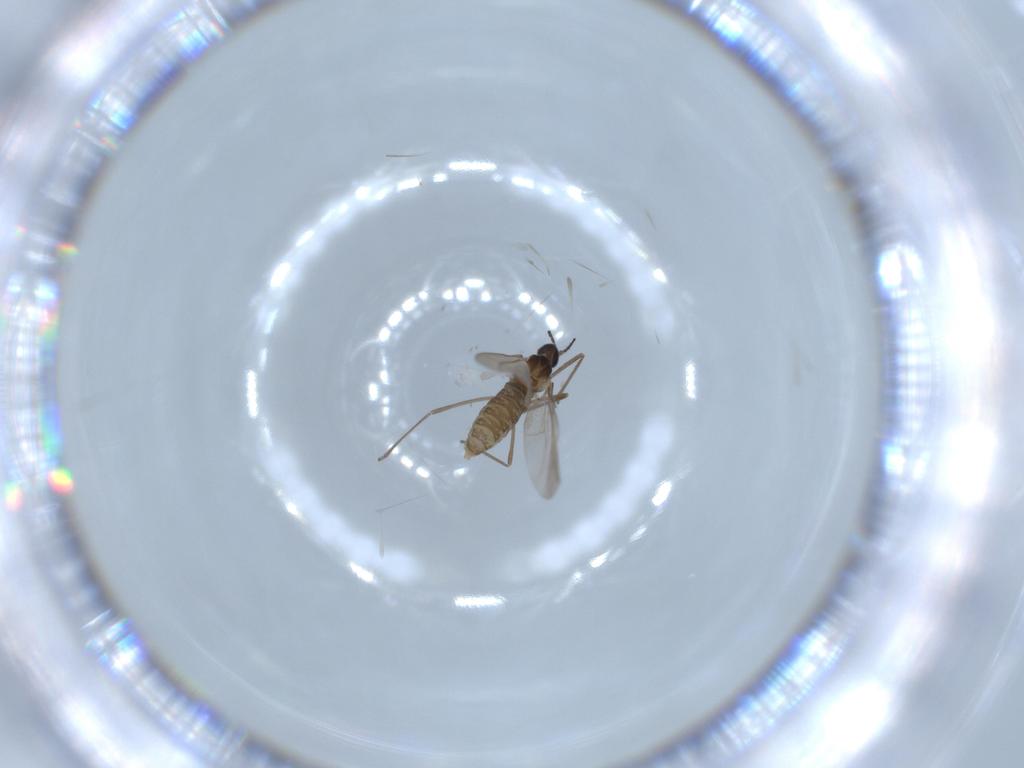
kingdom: Animalia
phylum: Arthropoda
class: Insecta
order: Diptera
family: Cecidomyiidae
